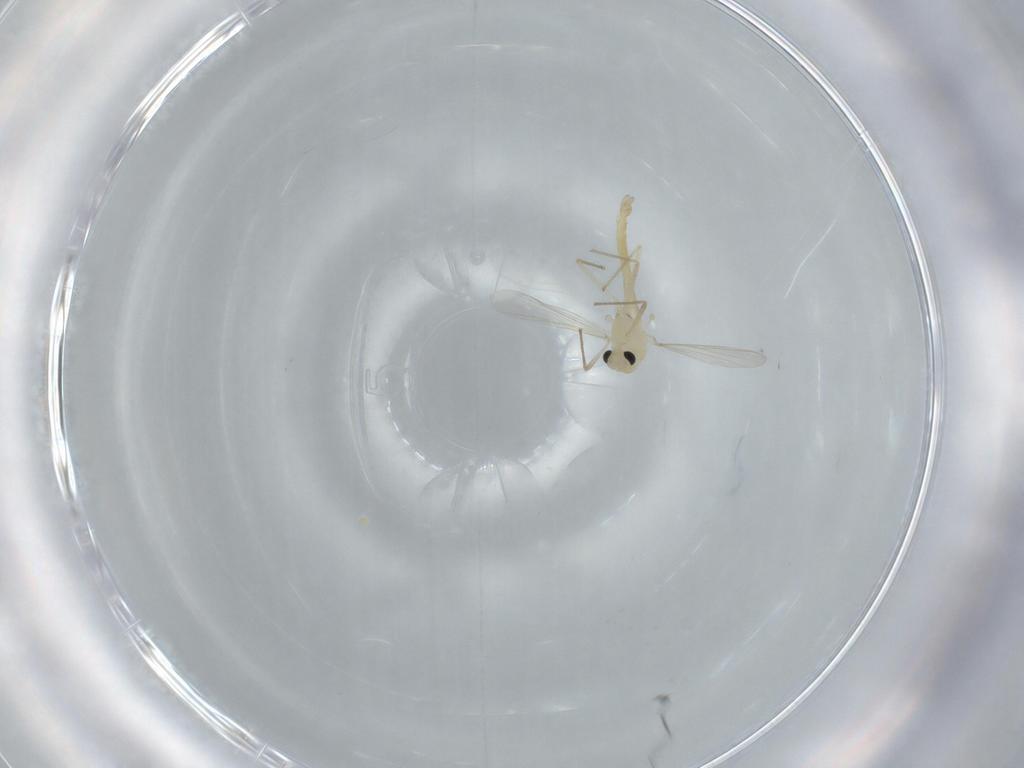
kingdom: Animalia
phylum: Arthropoda
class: Insecta
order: Diptera
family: Chironomidae
